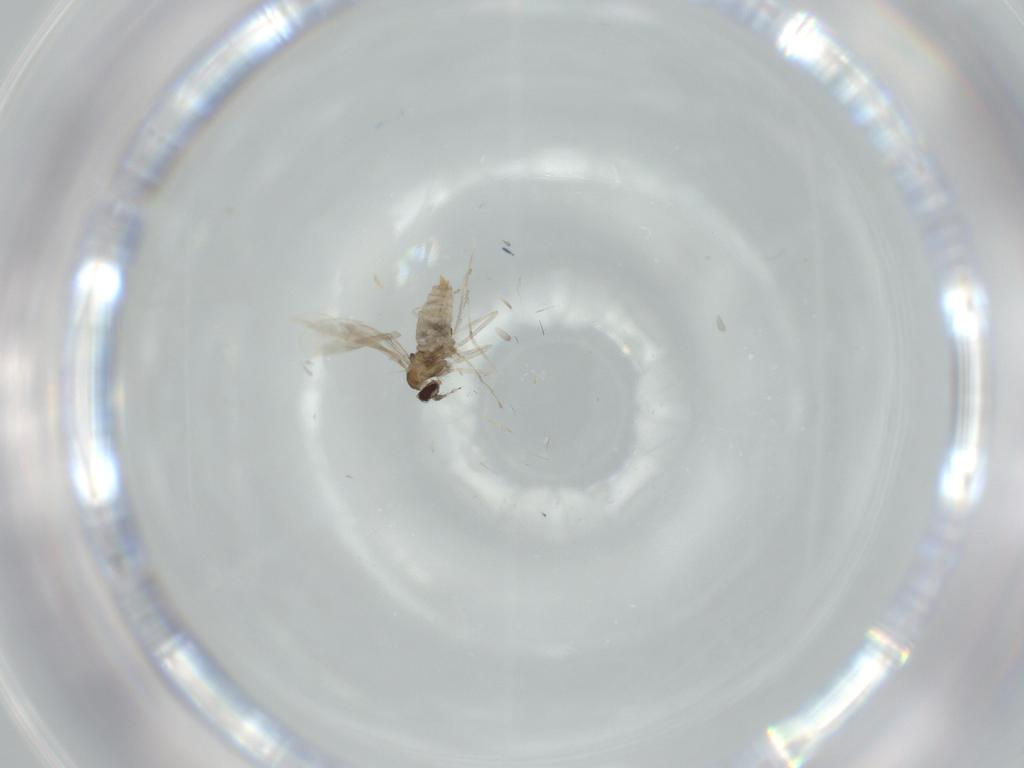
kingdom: Animalia
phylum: Arthropoda
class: Insecta
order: Diptera
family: Cecidomyiidae
